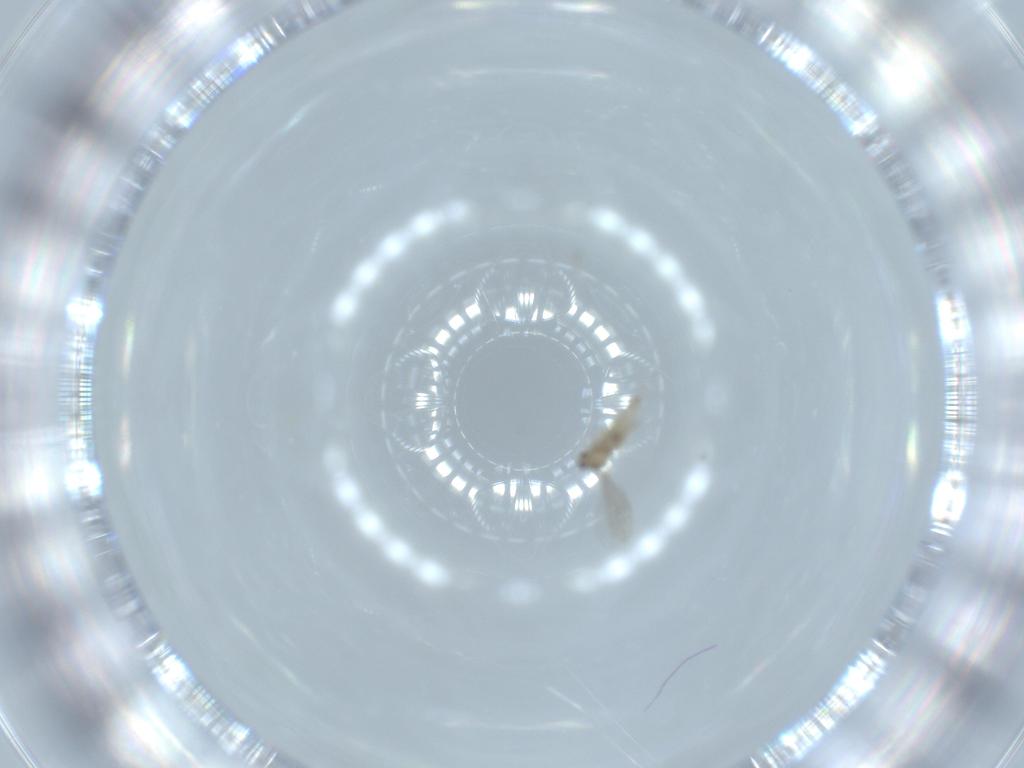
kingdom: Animalia
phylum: Arthropoda
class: Insecta
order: Diptera
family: Cecidomyiidae
